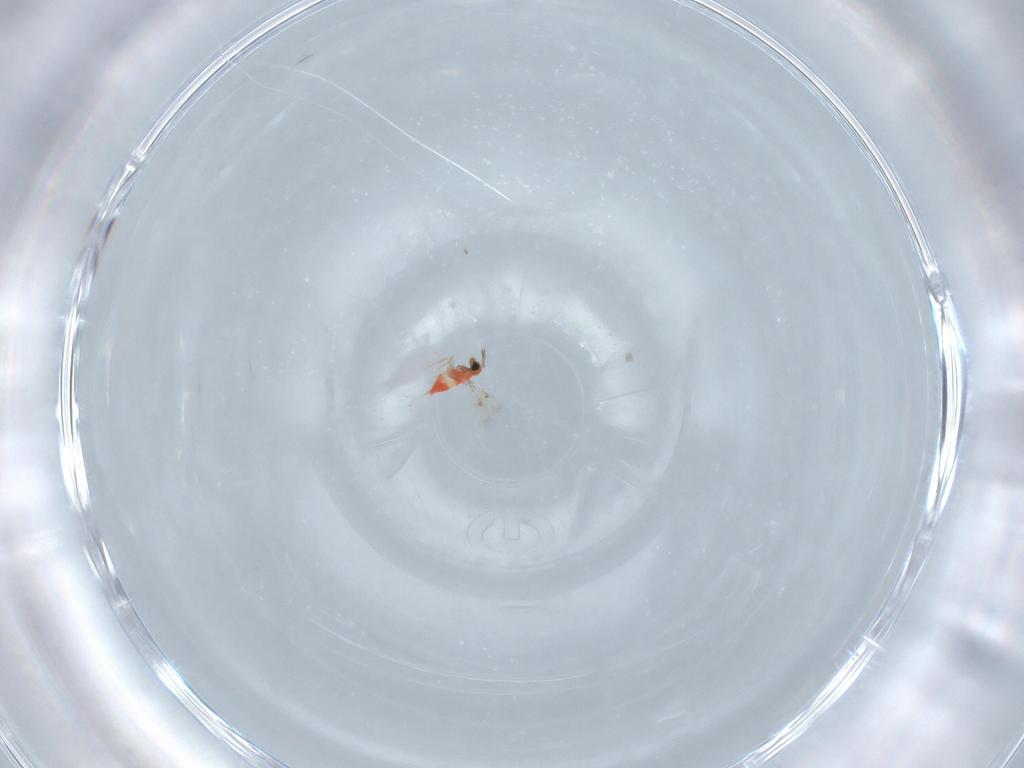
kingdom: Animalia
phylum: Arthropoda
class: Insecta
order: Hymenoptera
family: Trichogrammatidae
